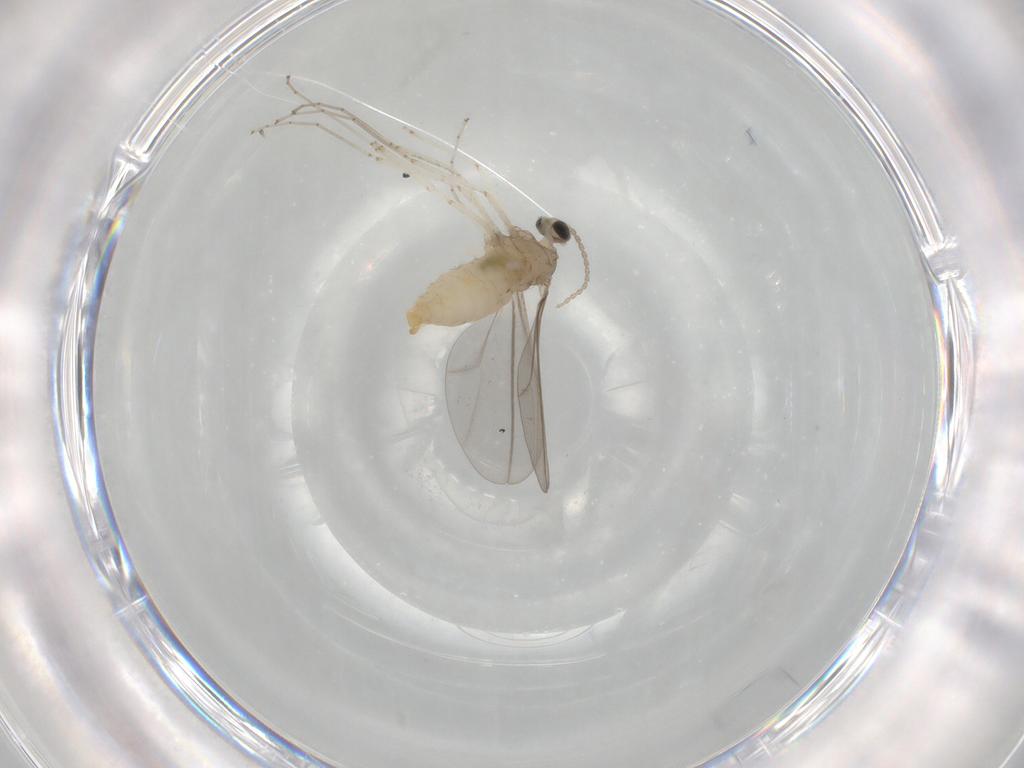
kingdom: Animalia
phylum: Arthropoda
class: Insecta
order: Diptera
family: Cecidomyiidae
